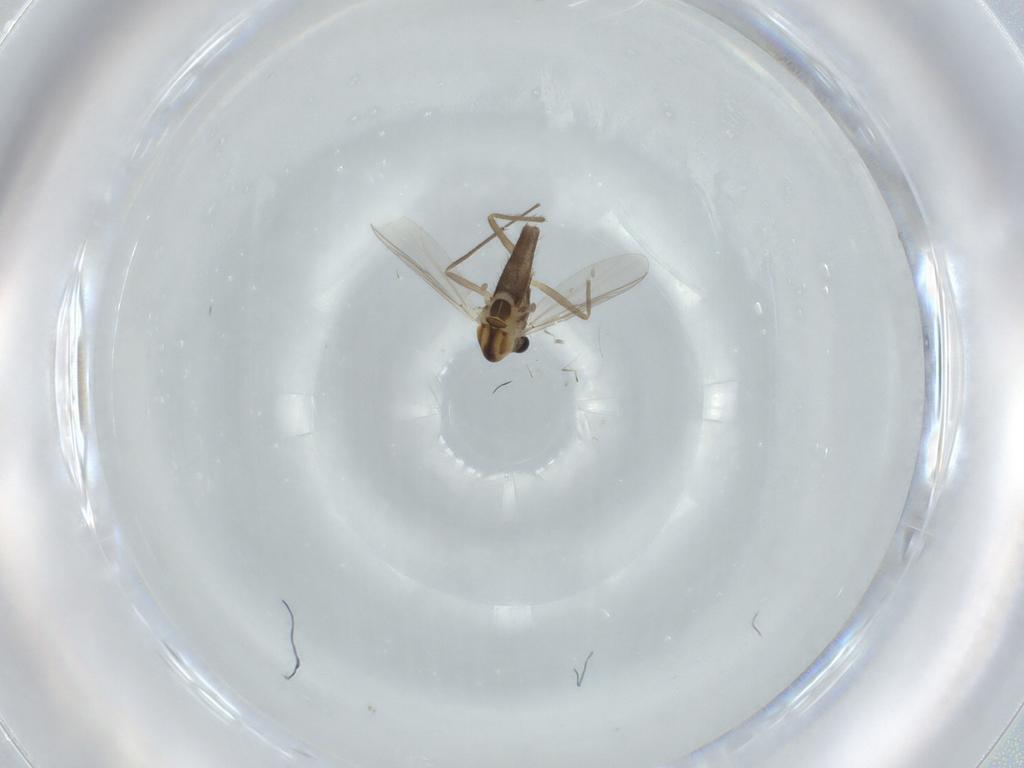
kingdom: Animalia
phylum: Arthropoda
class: Insecta
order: Diptera
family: Chironomidae
